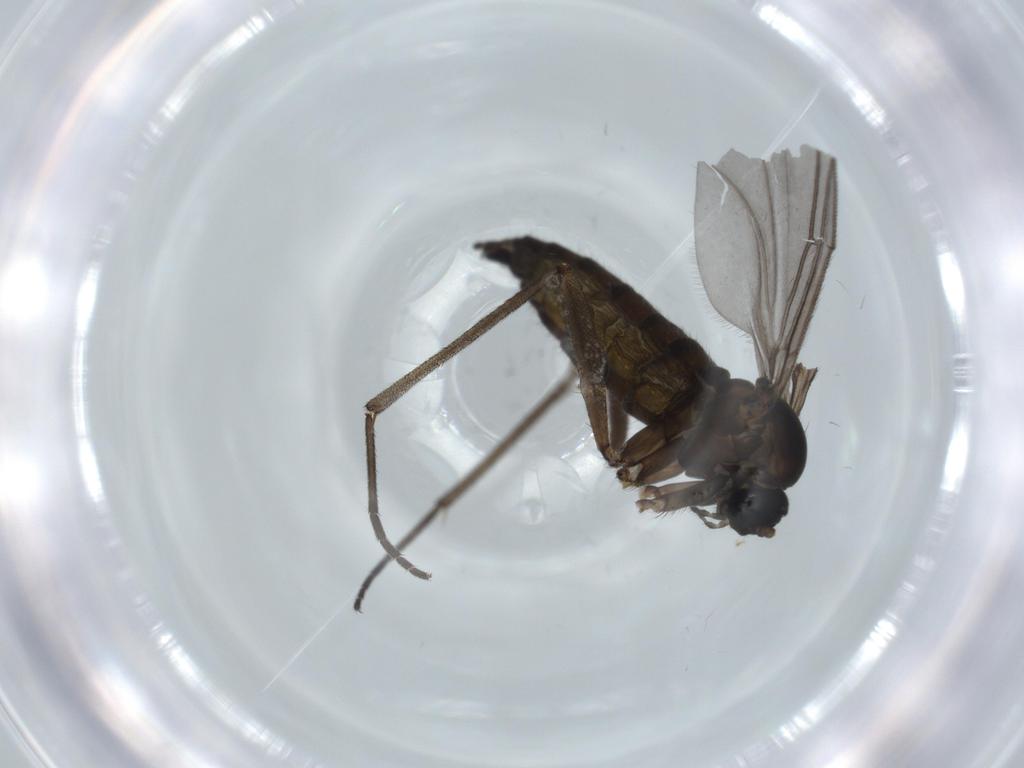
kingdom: Animalia
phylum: Arthropoda
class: Insecta
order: Diptera
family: Sciaridae
